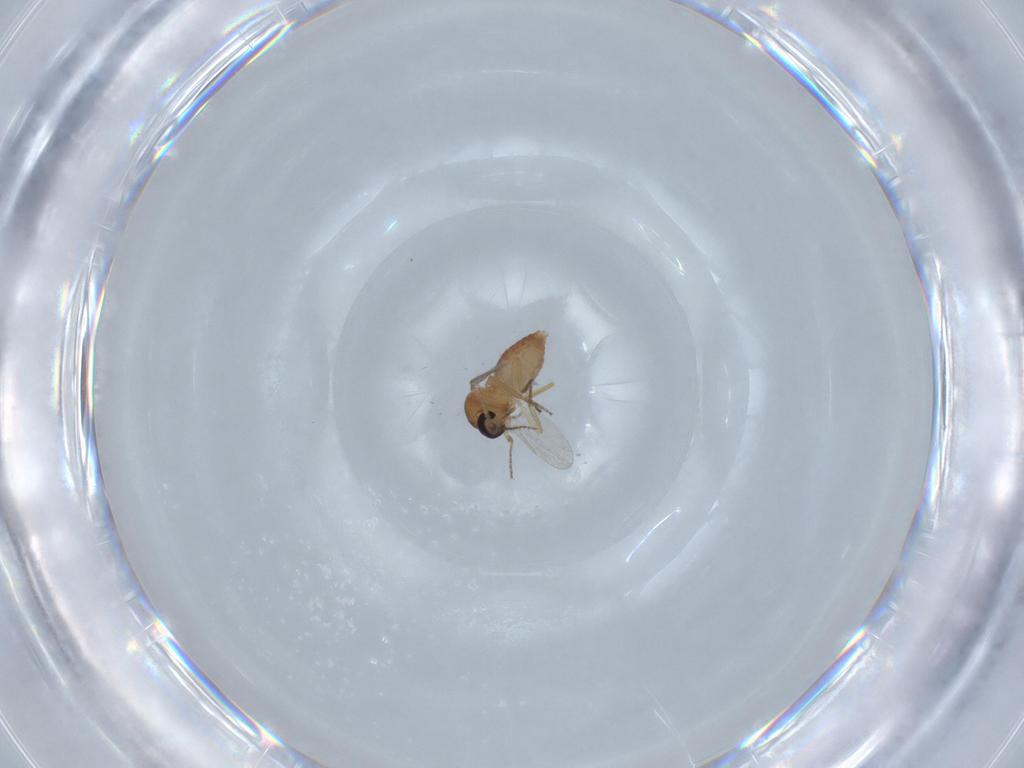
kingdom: Animalia
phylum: Arthropoda
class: Insecta
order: Diptera
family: Ceratopogonidae
